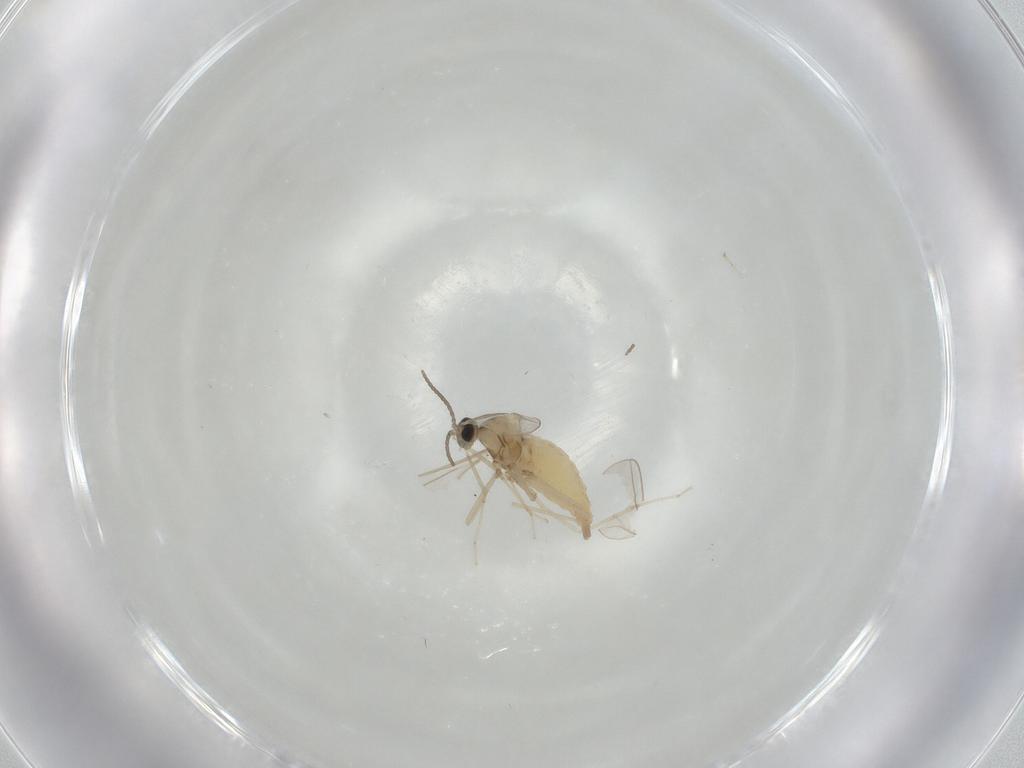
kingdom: Animalia
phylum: Arthropoda
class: Insecta
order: Diptera
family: Cecidomyiidae
